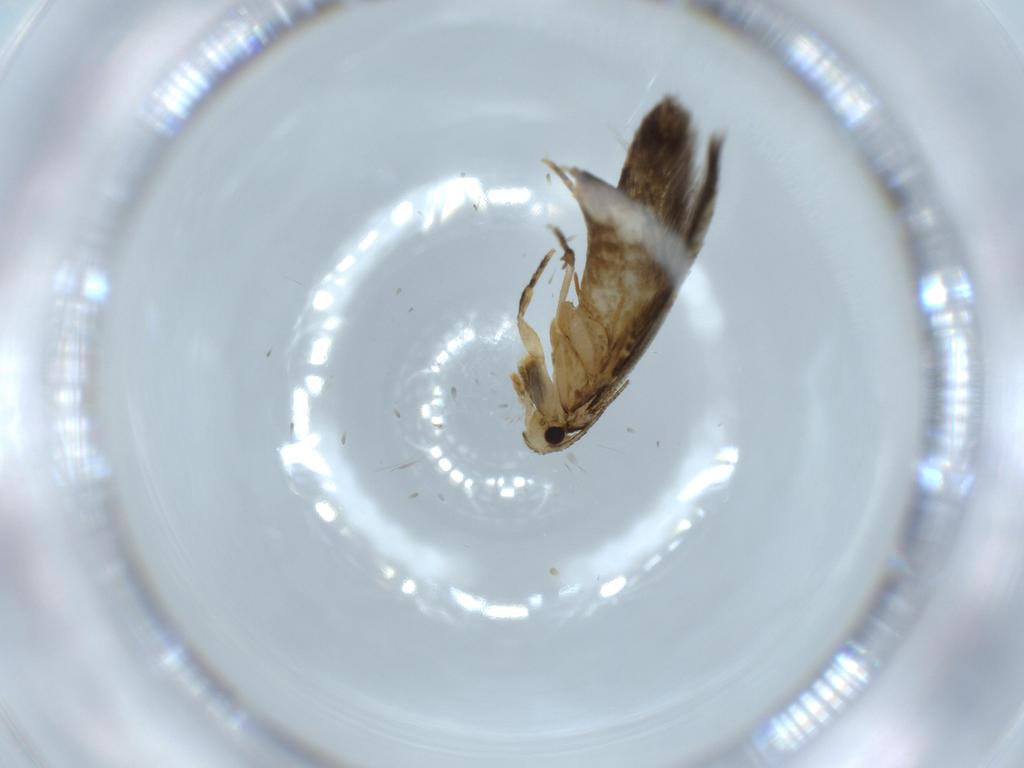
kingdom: Animalia
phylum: Arthropoda
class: Insecta
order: Lepidoptera
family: Tineidae
